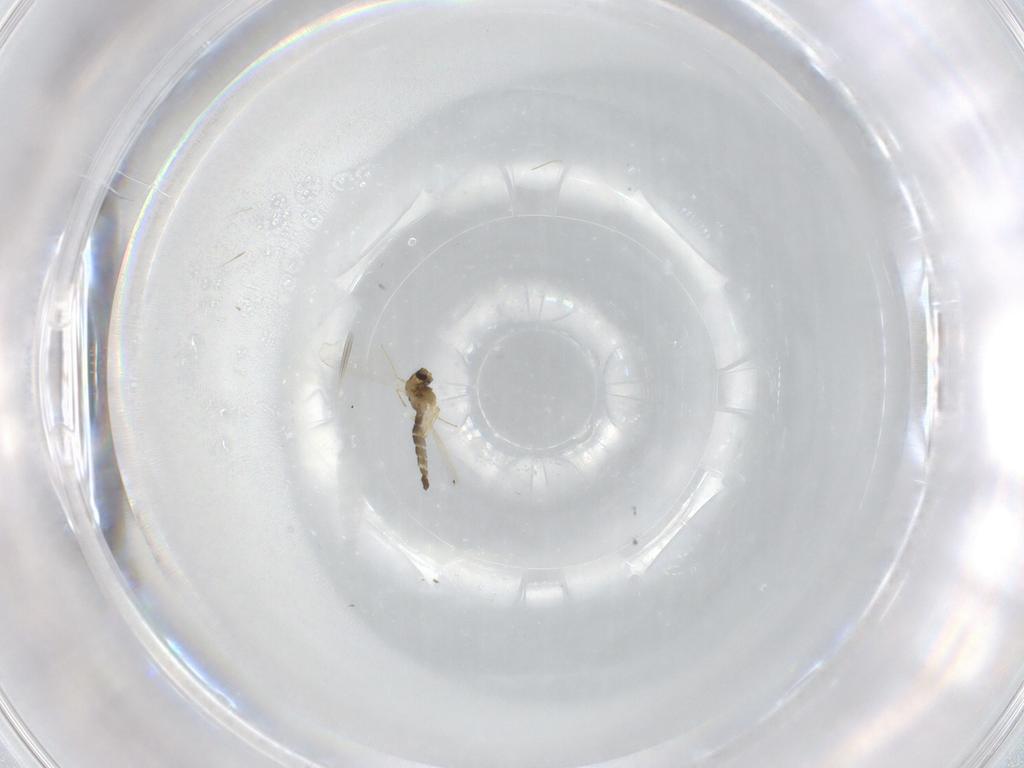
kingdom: Animalia
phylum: Arthropoda
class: Insecta
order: Diptera
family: Chironomidae
